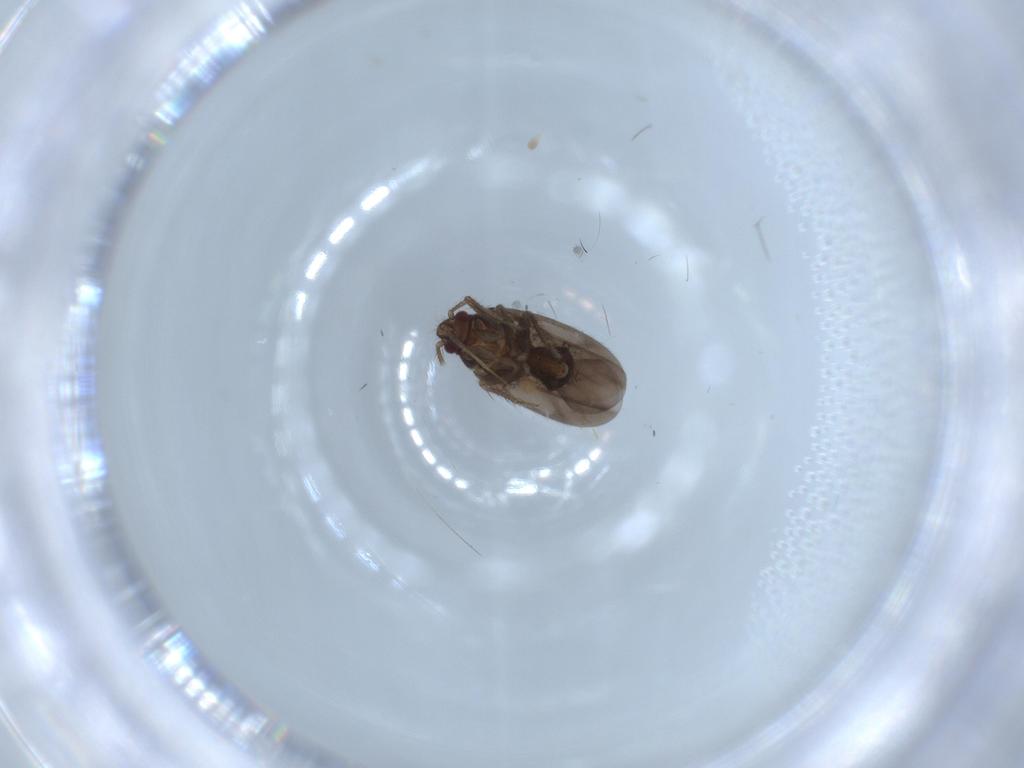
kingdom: Animalia
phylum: Arthropoda
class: Insecta
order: Hemiptera
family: Ceratocombidae
